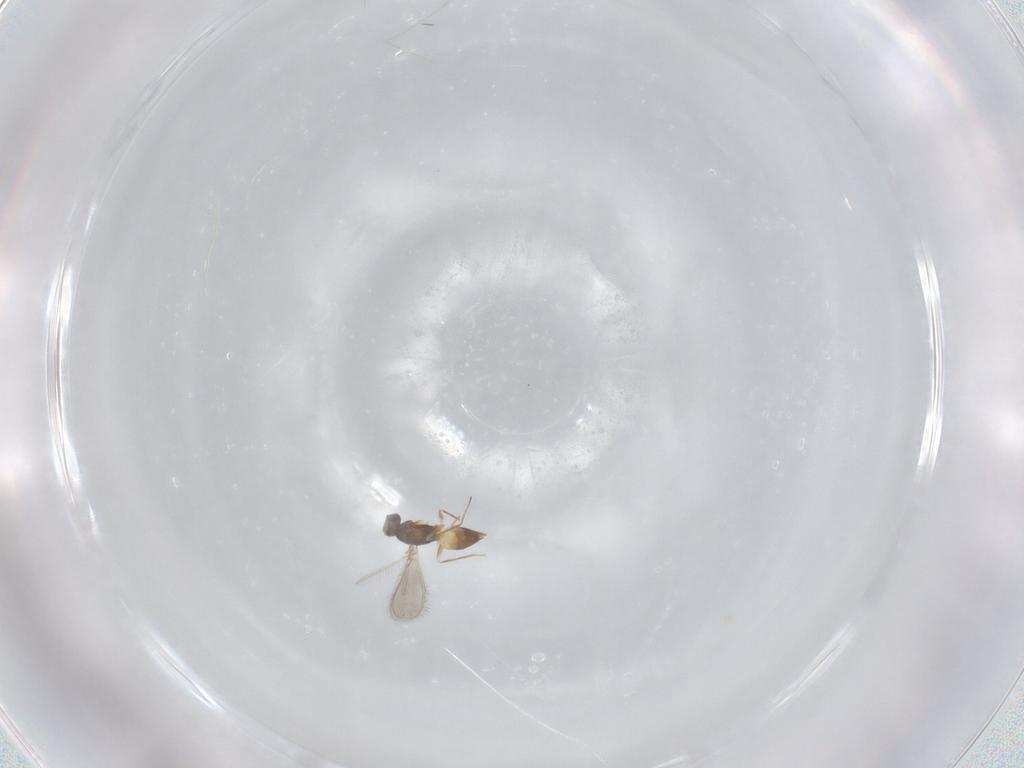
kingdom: Animalia
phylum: Arthropoda
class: Insecta
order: Hymenoptera
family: Mymaridae
